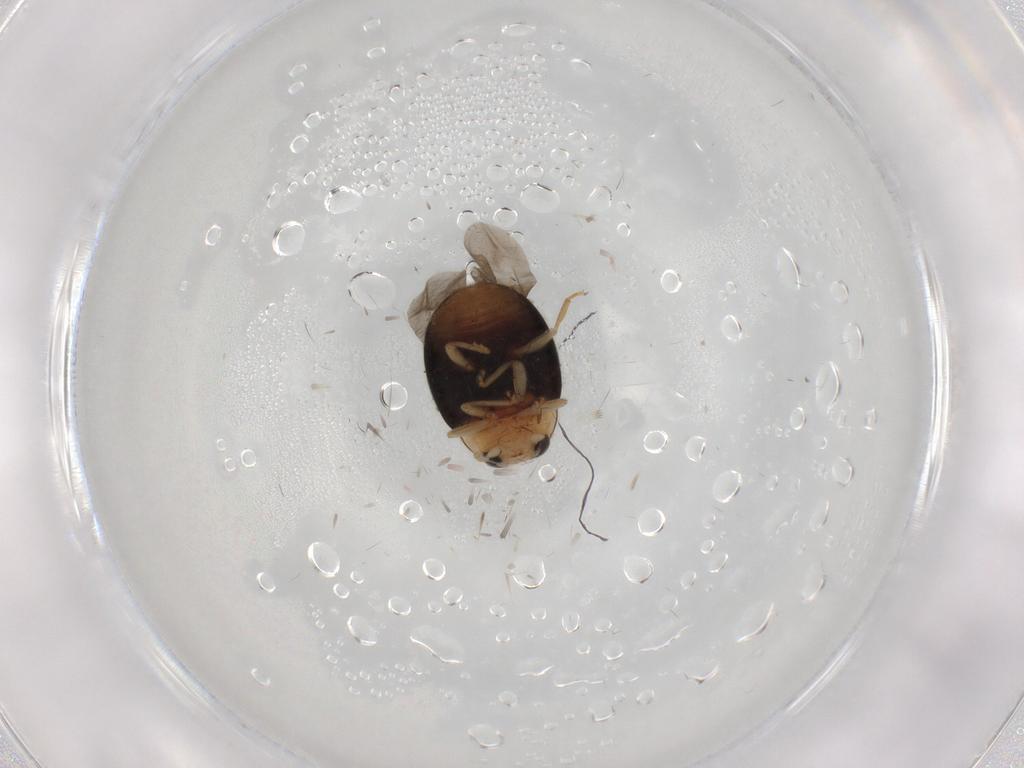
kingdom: Animalia
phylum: Arthropoda
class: Insecta
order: Coleoptera
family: Coccinellidae
